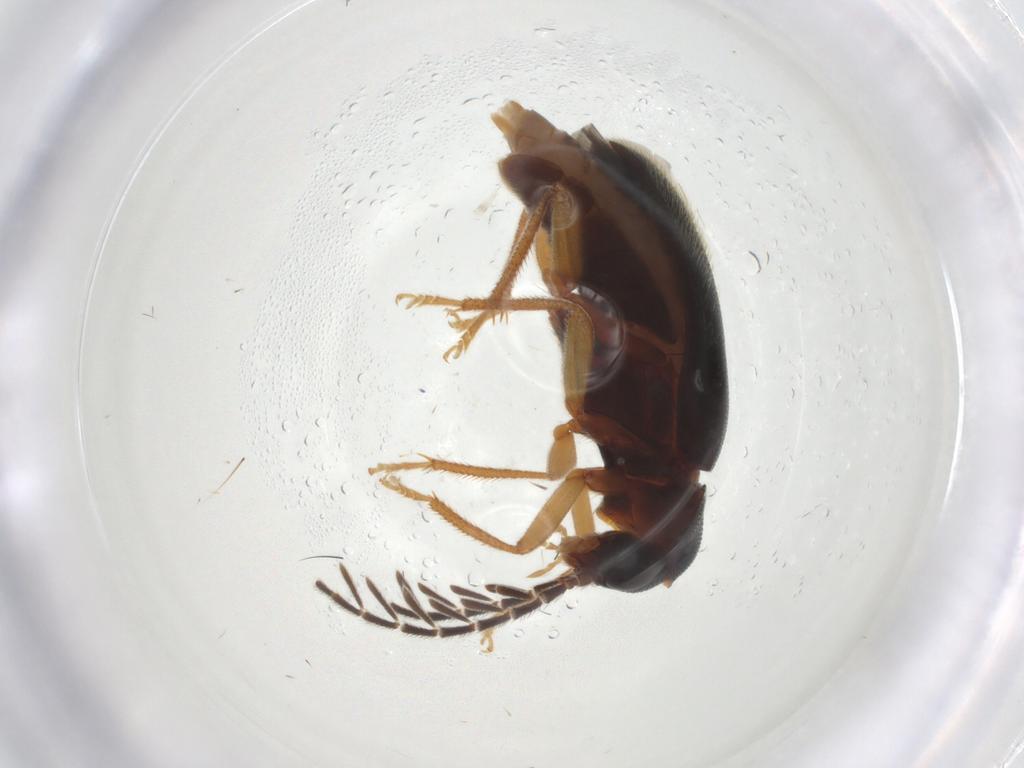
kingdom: Animalia
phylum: Arthropoda
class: Insecta
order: Coleoptera
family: Ptilodactylidae
